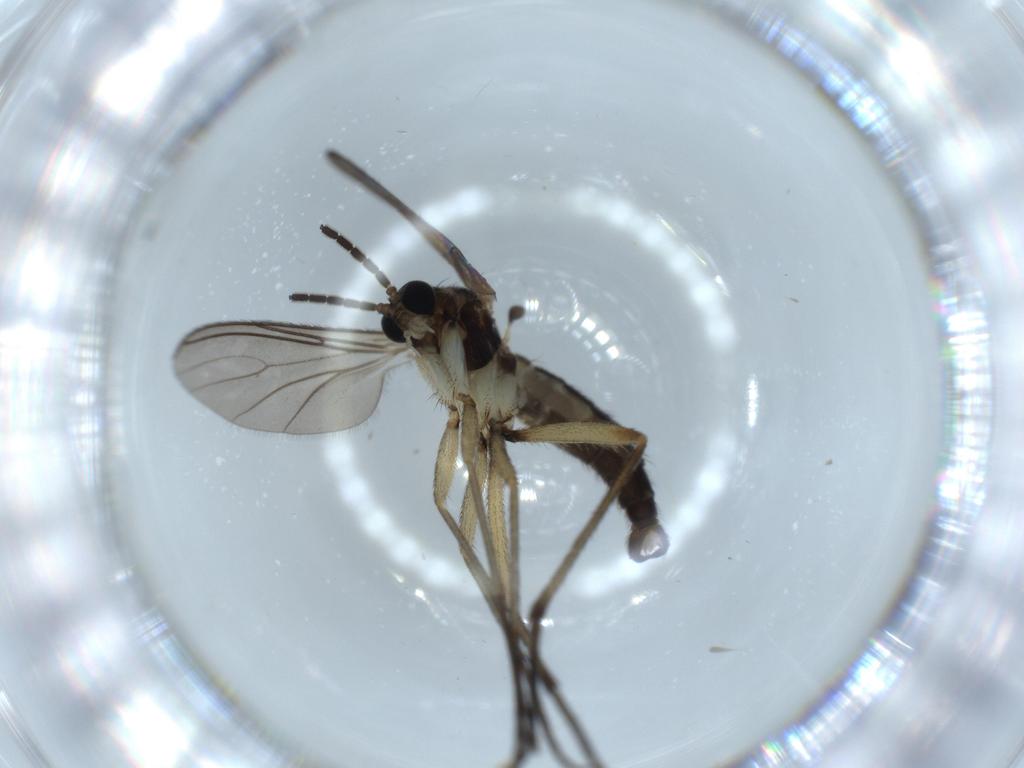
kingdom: Animalia
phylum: Arthropoda
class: Insecta
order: Diptera
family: Sciaridae
